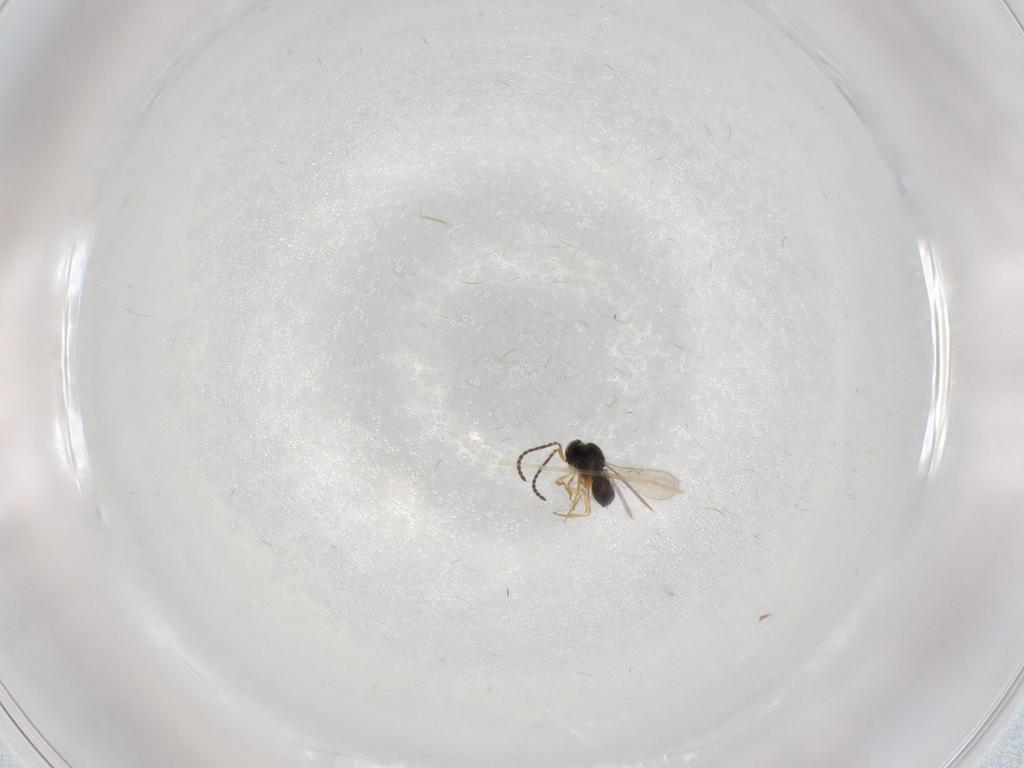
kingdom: Animalia
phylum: Arthropoda
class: Insecta
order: Hymenoptera
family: Scelionidae
